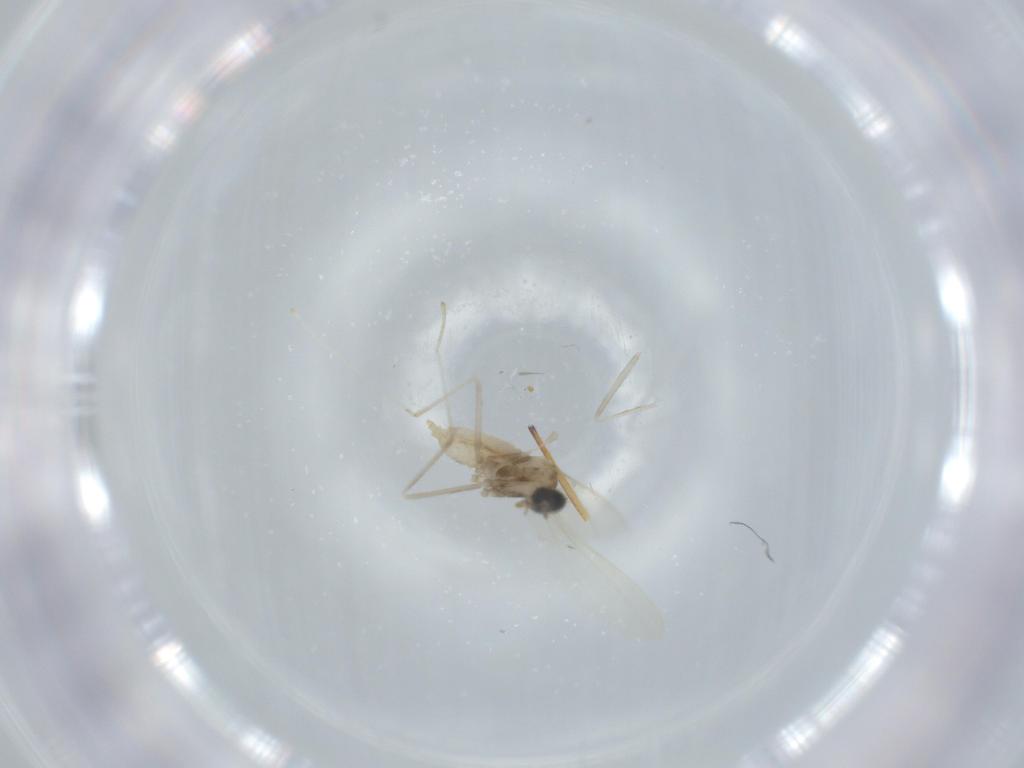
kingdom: Animalia
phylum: Arthropoda
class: Insecta
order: Diptera
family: Cecidomyiidae
